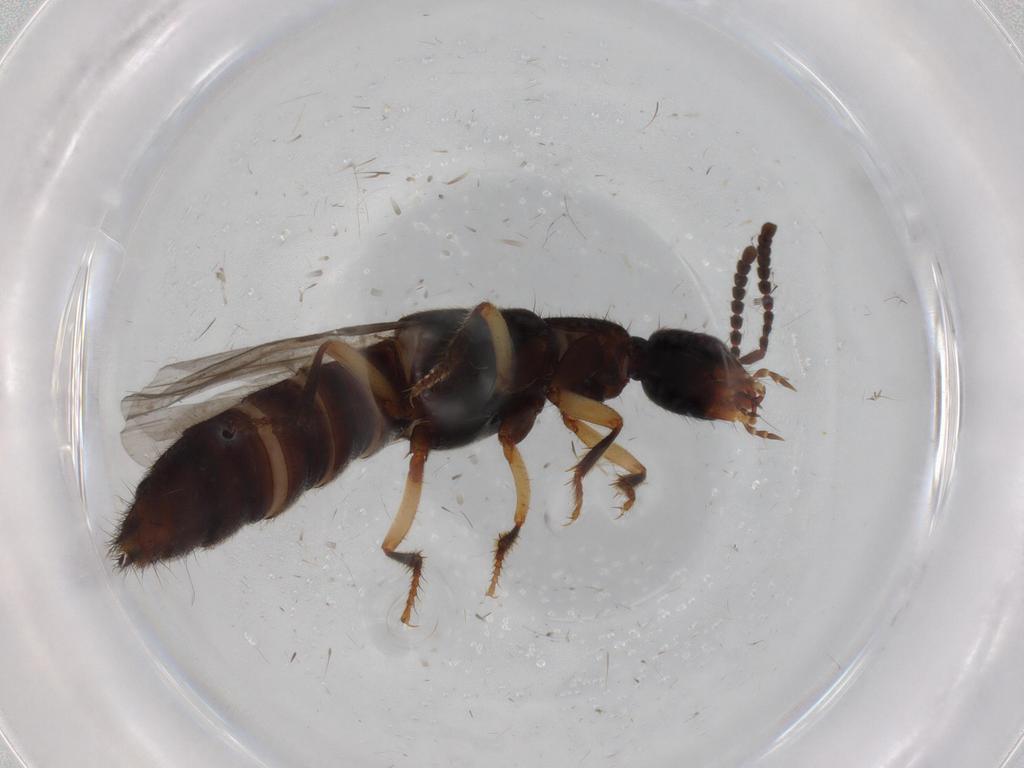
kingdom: Animalia
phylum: Arthropoda
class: Insecta
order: Coleoptera
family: Staphylinidae
